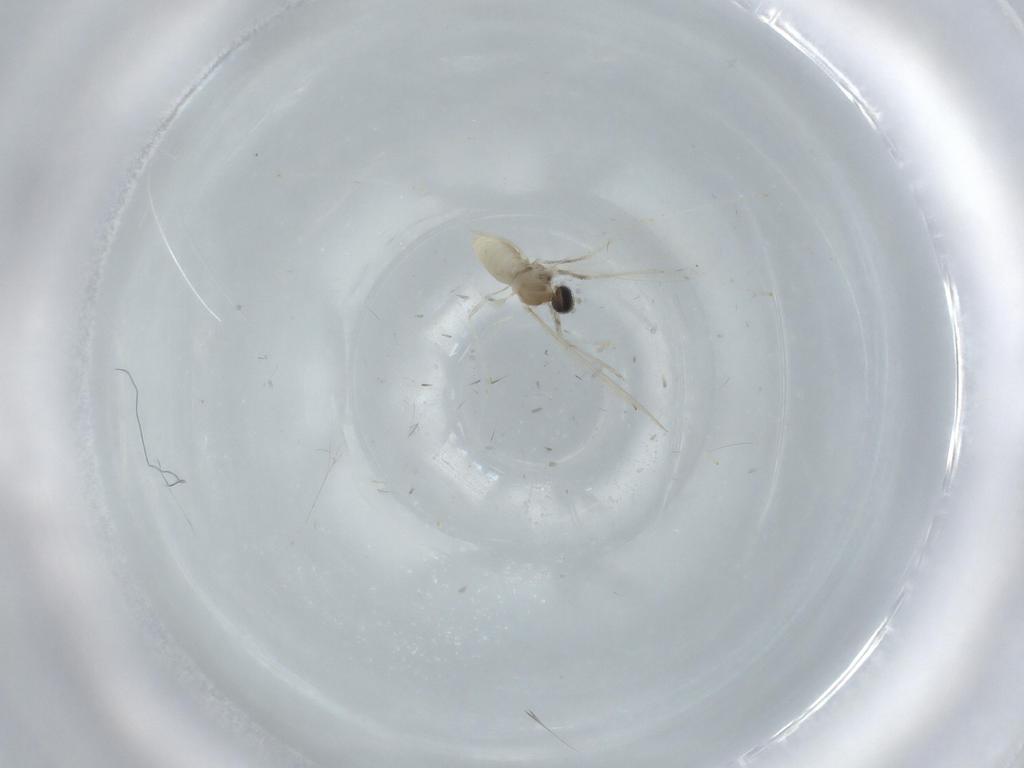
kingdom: Animalia
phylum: Arthropoda
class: Insecta
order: Diptera
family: Cecidomyiidae
